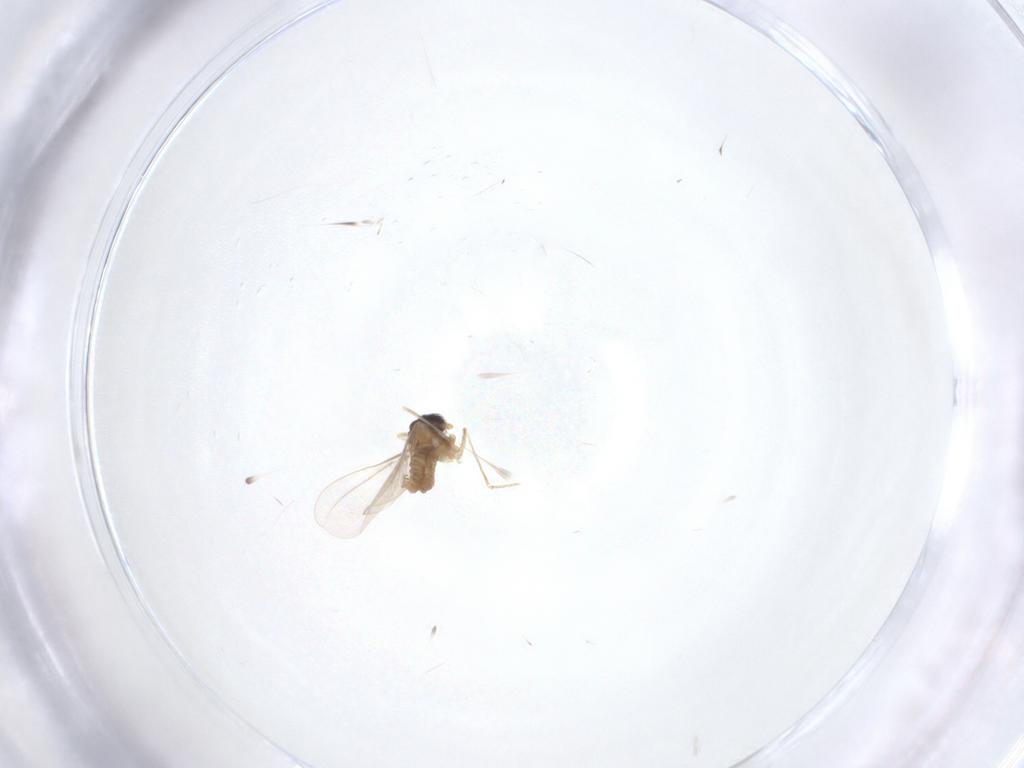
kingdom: Animalia
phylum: Arthropoda
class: Insecta
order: Diptera
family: Cecidomyiidae
